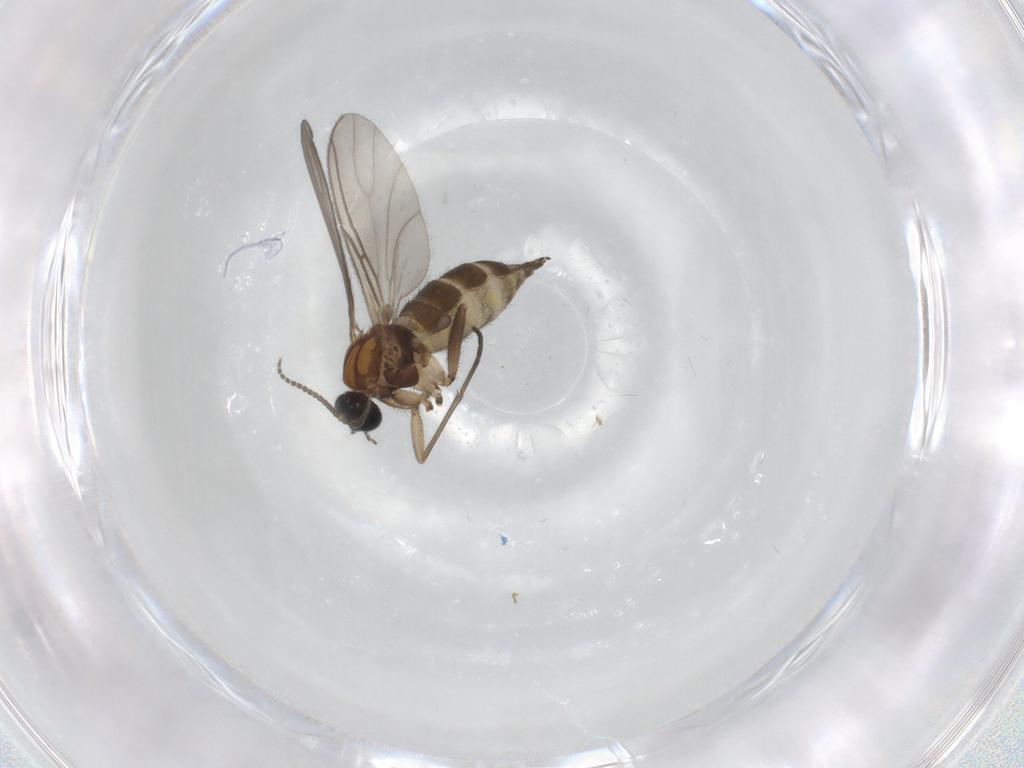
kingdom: Animalia
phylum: Arthropoda
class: Insecta
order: Diptera
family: Sciaridae
